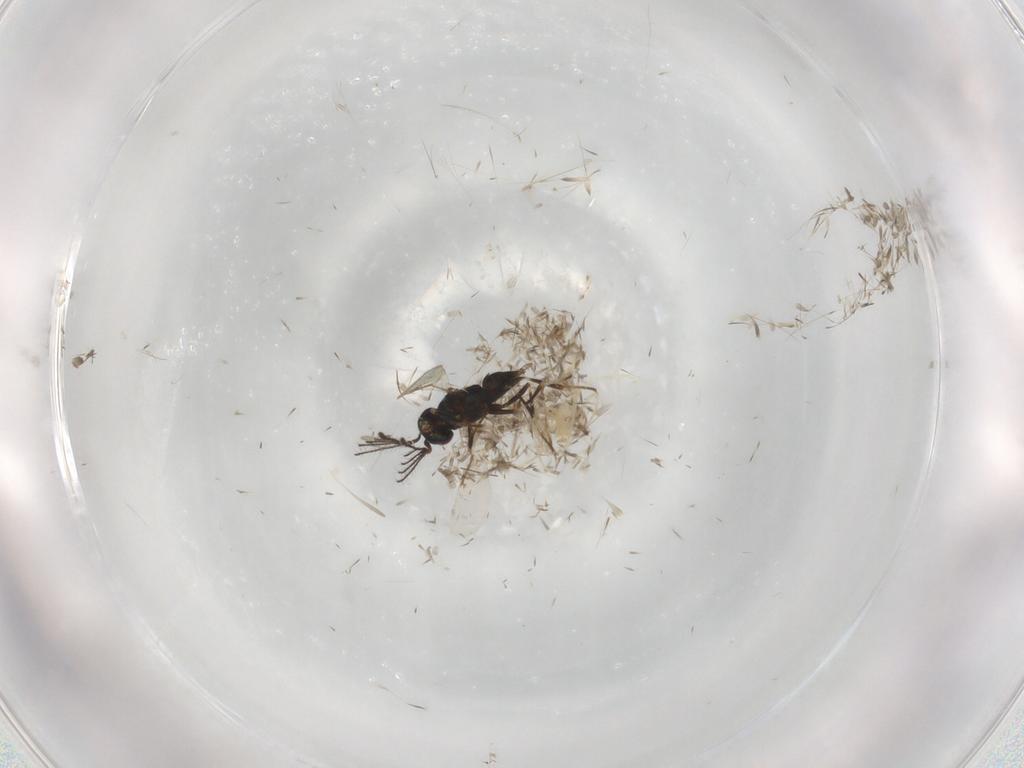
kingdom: Animalia
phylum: Arthropoda
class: Insecta
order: Hymenoptera
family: Encyrtidae
